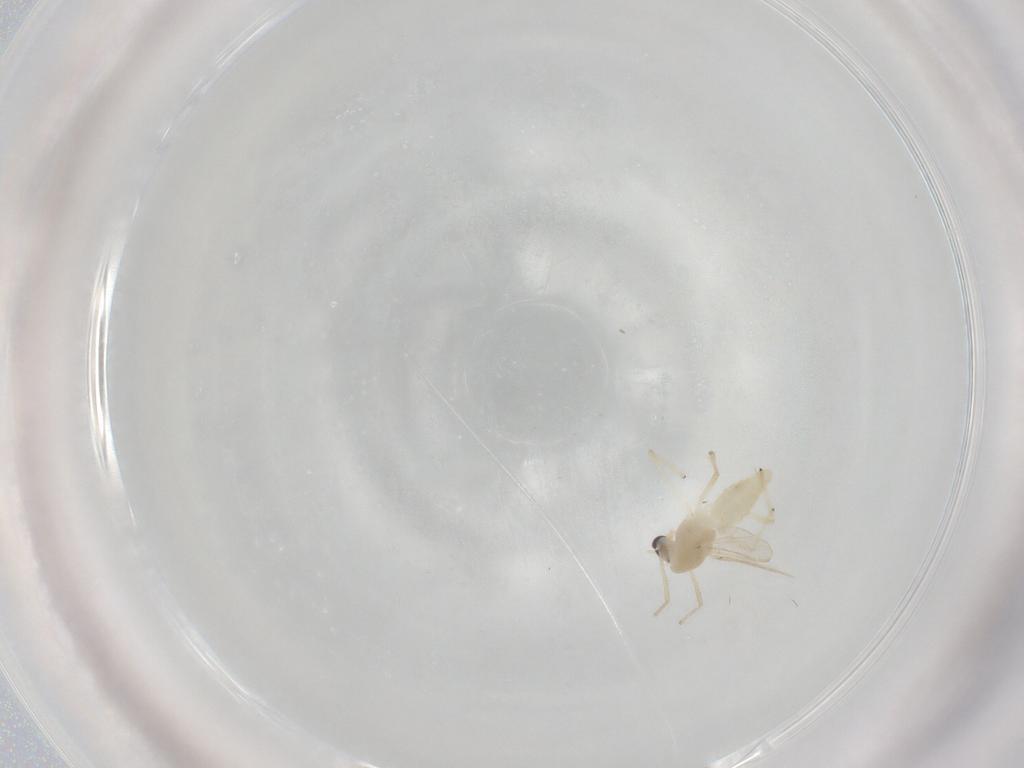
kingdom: Animalia
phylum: Arthropoda
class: Insecta
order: Diptera
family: Chironomidae
